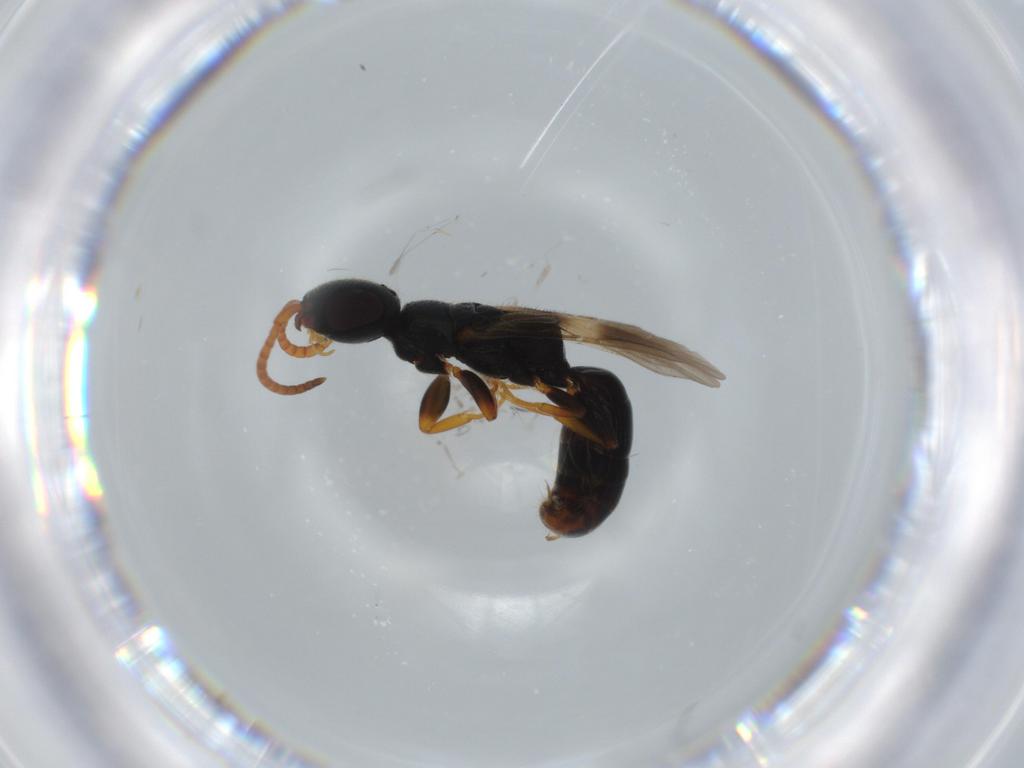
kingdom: Animalia
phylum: Arthropoda
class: Insecta
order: Hymenoptera
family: Bethylidae
